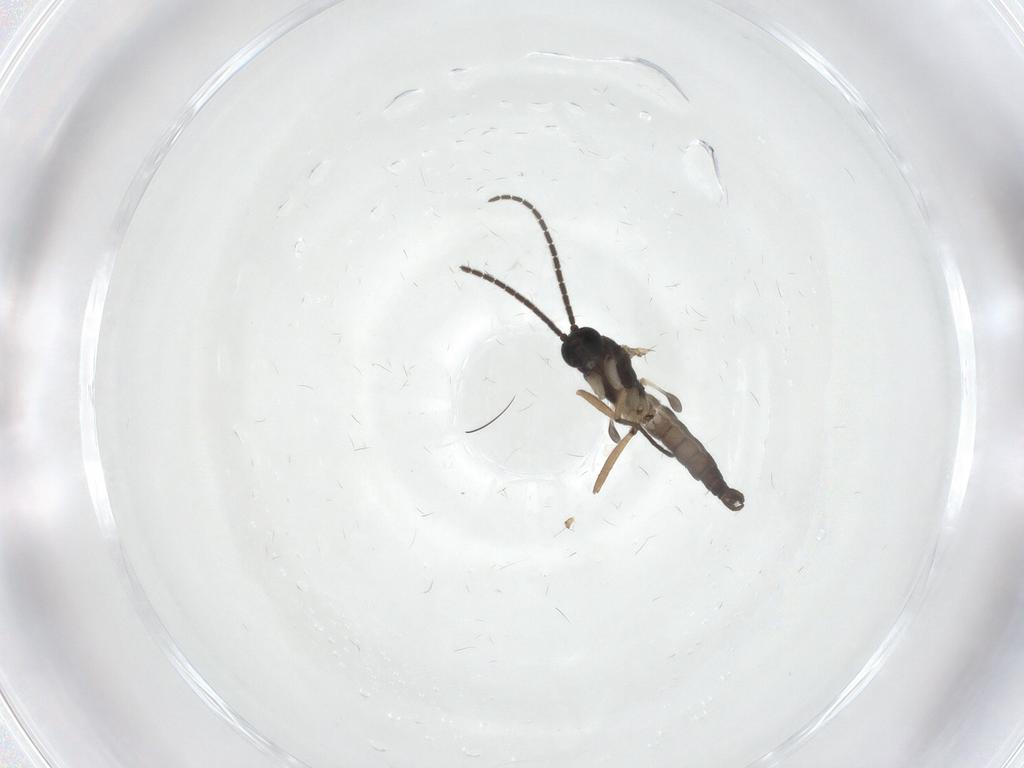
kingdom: Animalia
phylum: Arthropoda
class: Insecta
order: Diptera
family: Sciaridae
